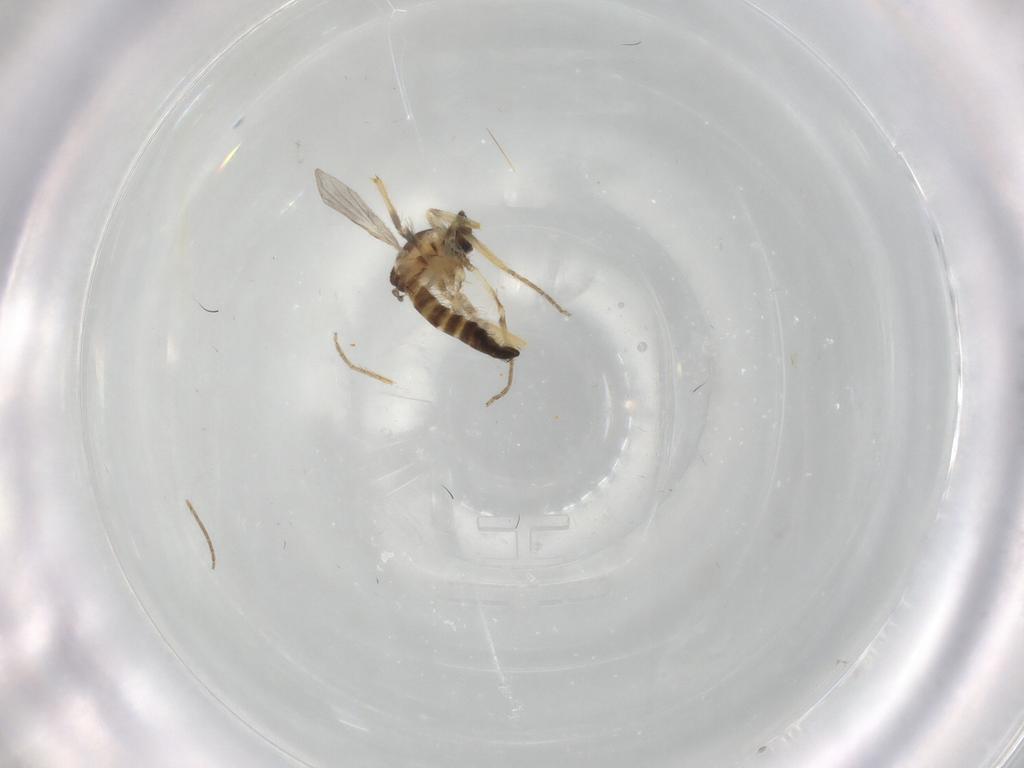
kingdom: Animalia
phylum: Arthropoda
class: Insecta
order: Diptera
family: Ceratopogonidae
